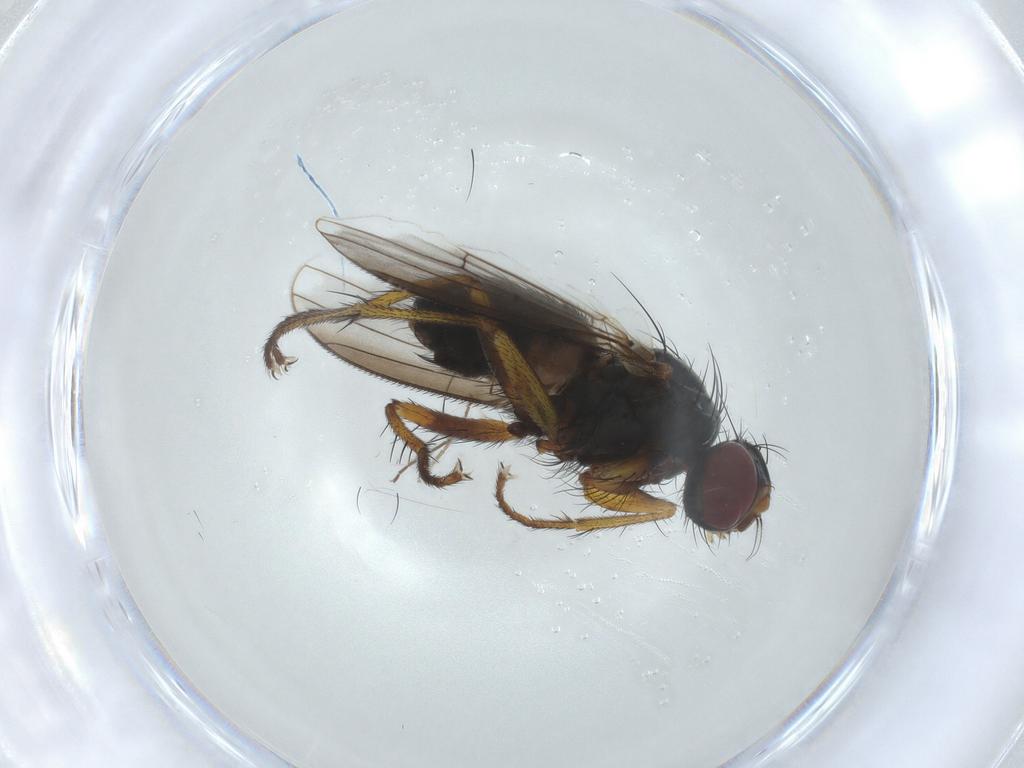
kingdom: Animalia
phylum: Arthropoda
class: Insecta
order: Diptera
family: Muscidae
